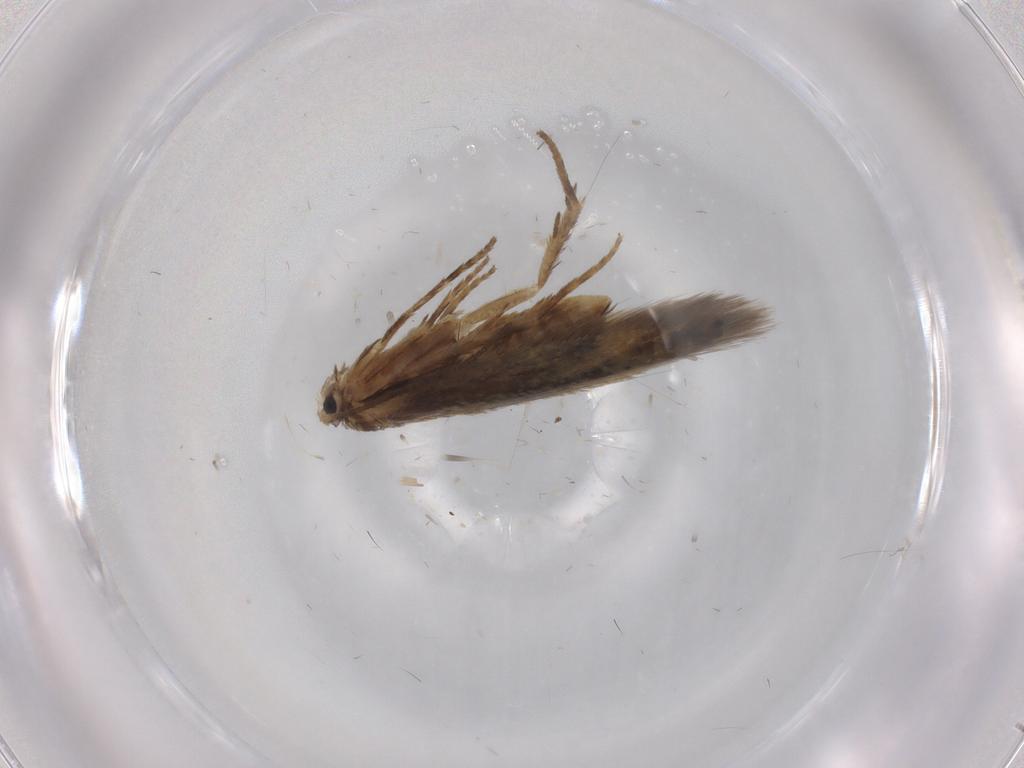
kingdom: Animalia
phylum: Arthropoda
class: Insecta
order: Lepidoptera
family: Nepticulidae
